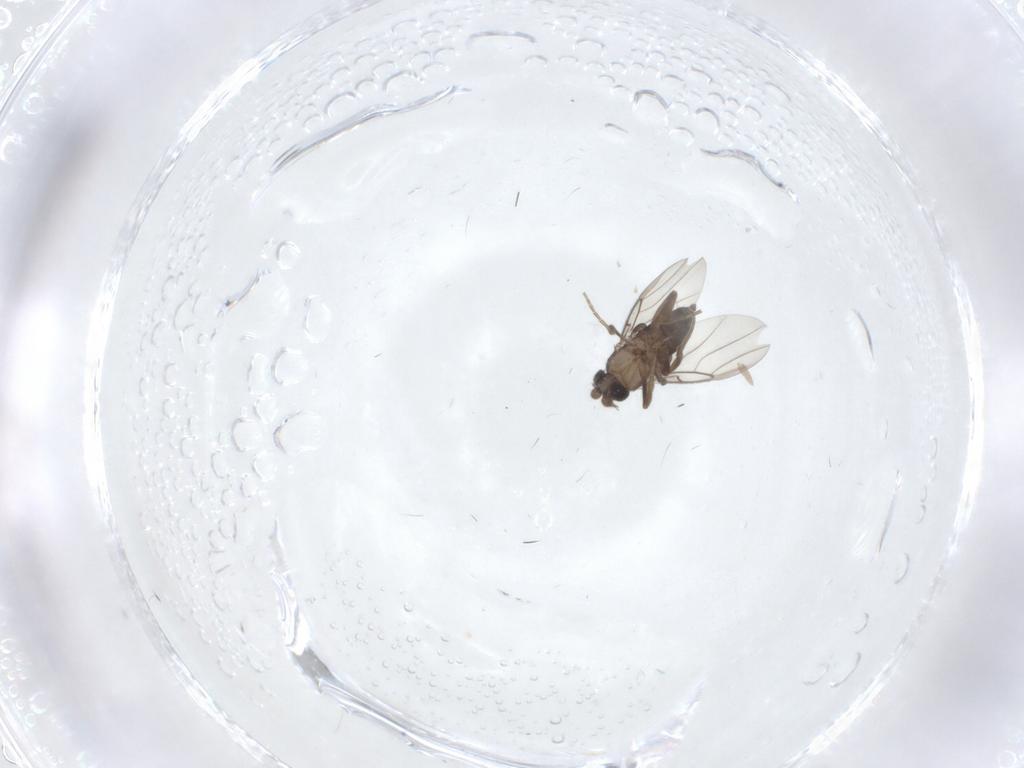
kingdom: Animalia
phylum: Arthropoda
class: Insecta
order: Diptera
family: Phoridae
